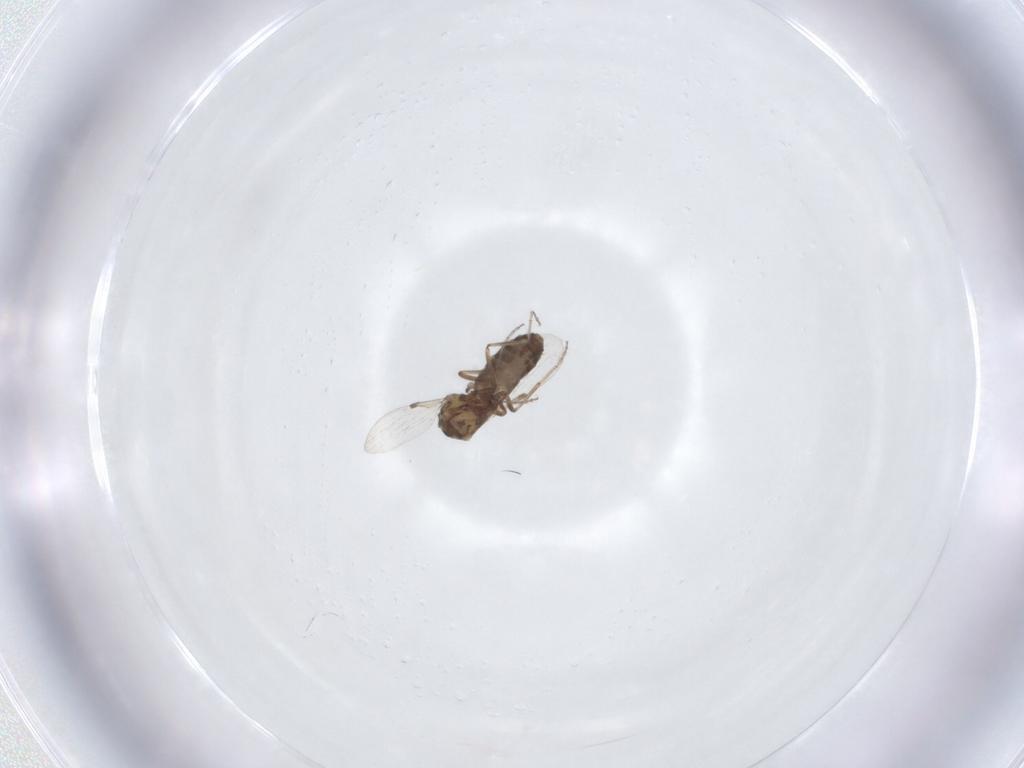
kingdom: Animalia
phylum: Arthropoda
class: Insecta
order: Diptera
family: Ceratopogonidae
